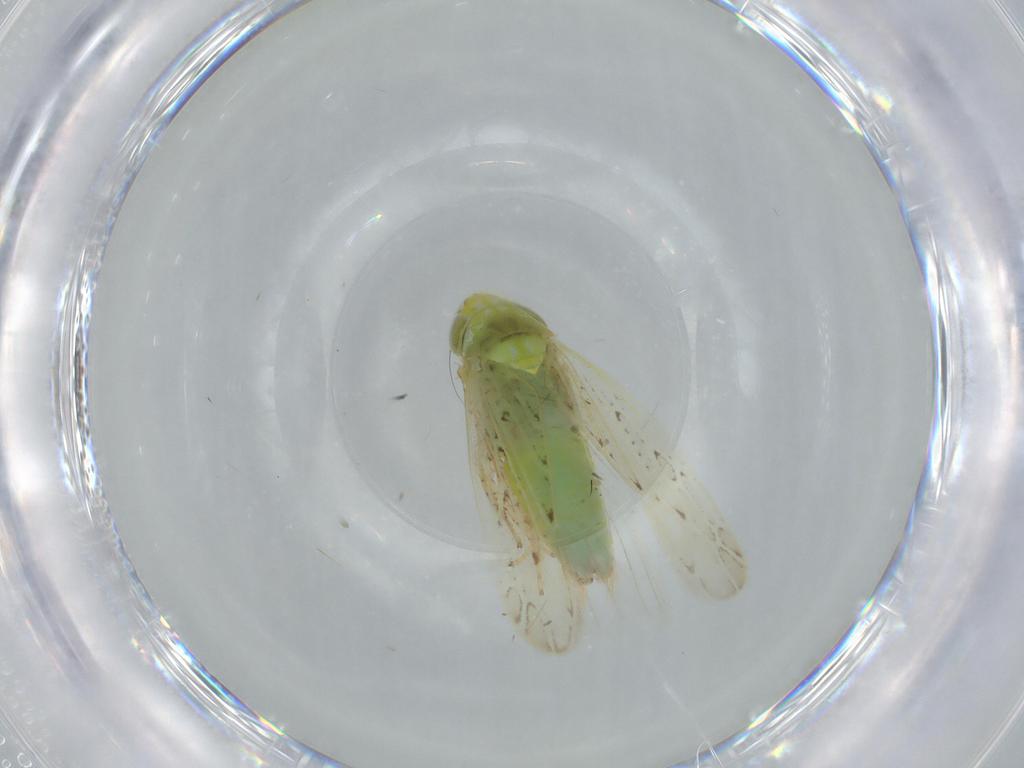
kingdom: Animalia
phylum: Arthropoda
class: Insecta
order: Hemiptera
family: Cicadellidae
